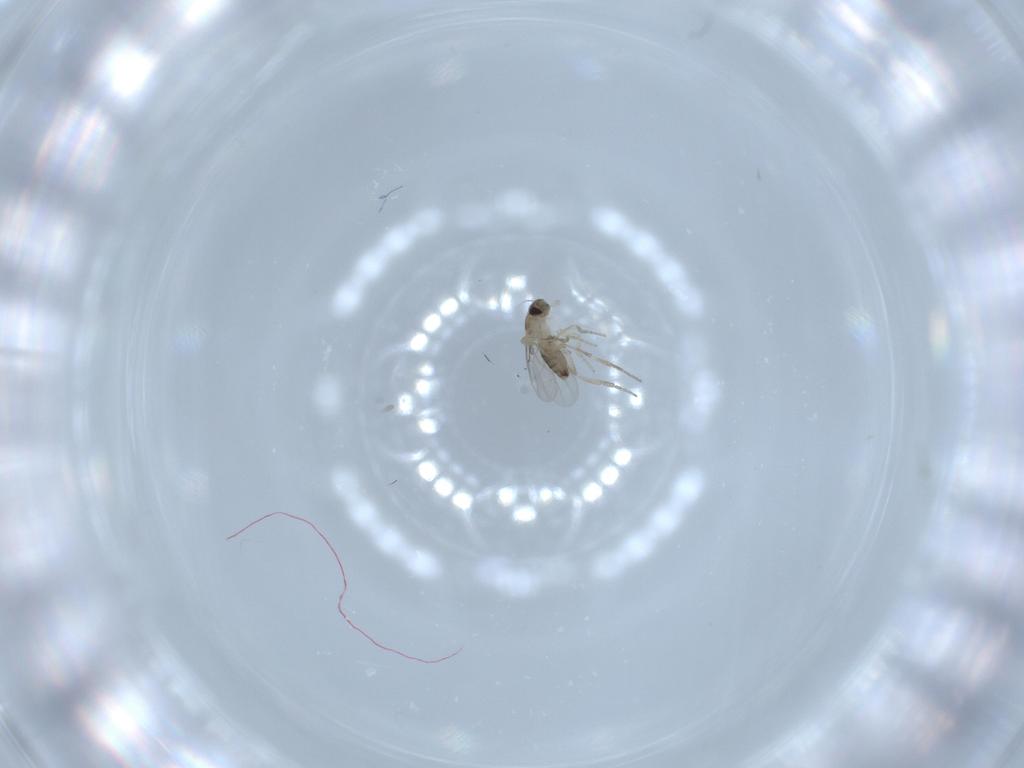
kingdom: Animalia
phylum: Arthropoda
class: Insecta
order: Diptera
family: Phoridae
